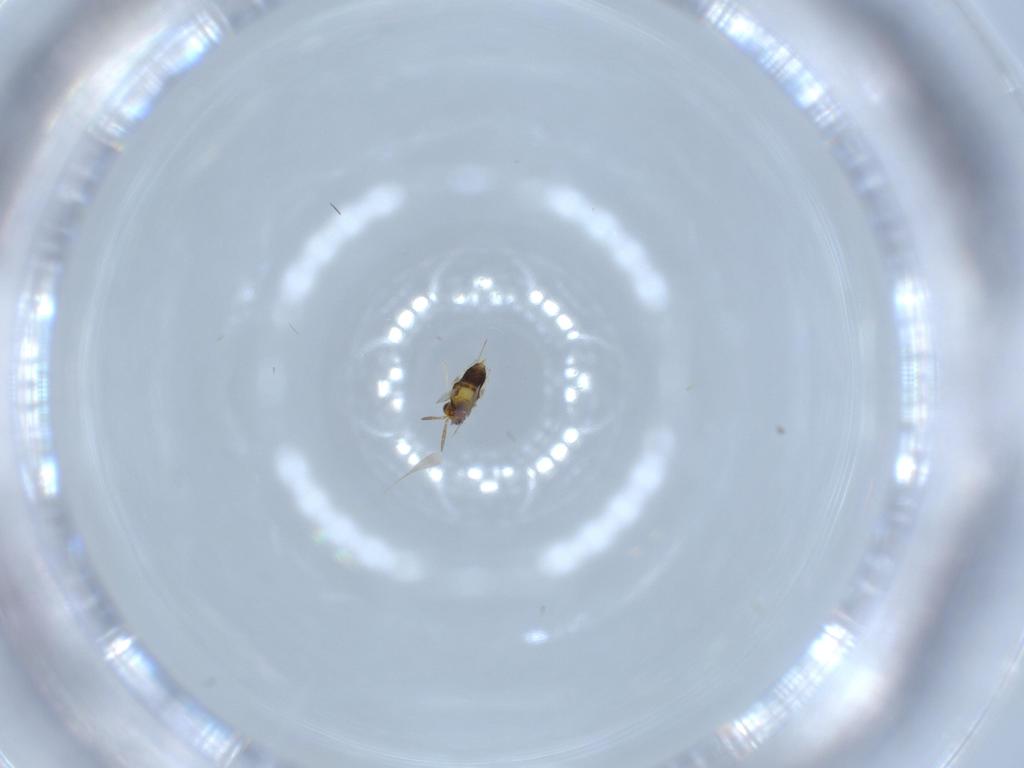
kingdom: Animalia
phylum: Arthropoda
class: Insecta
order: Hymenoptera
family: Aphelinidae
